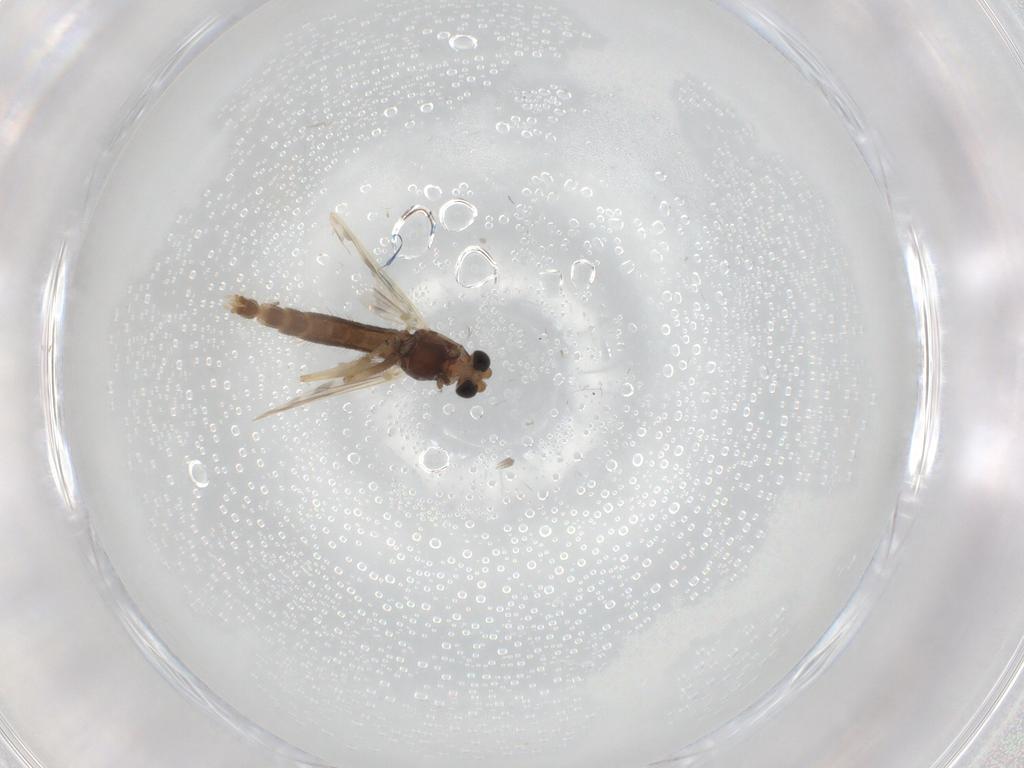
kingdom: Animalia
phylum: Arthropoda
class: Insecta
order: Diptera
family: Chironomidae
